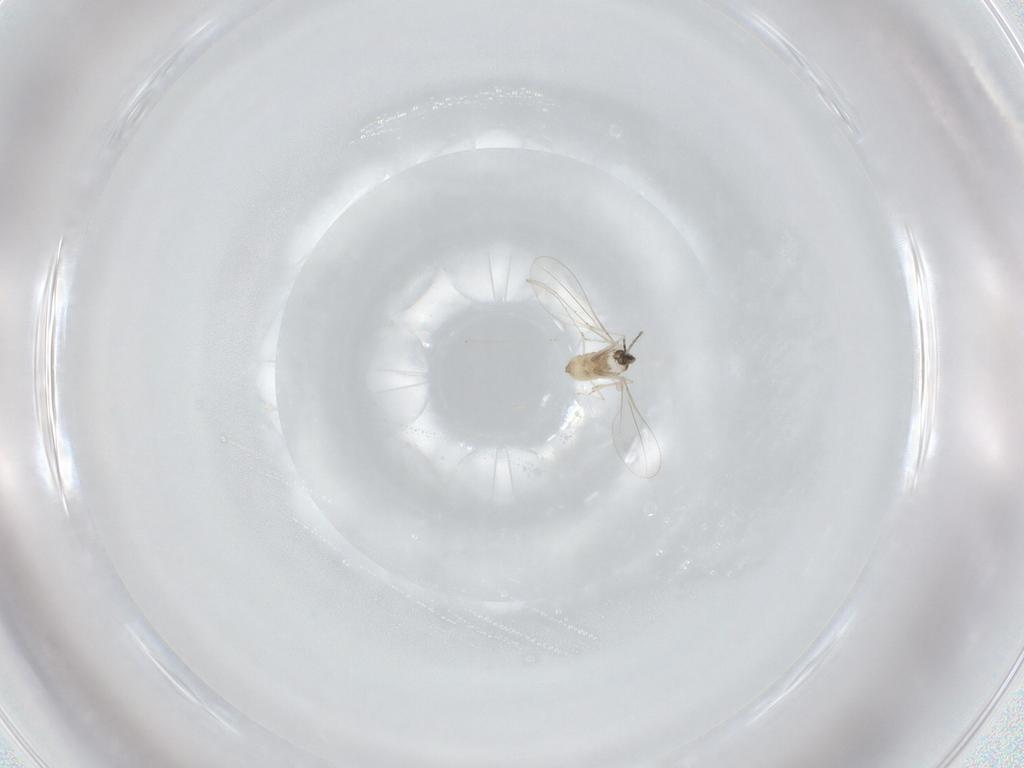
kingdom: Animalia
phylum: Arthropoda
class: Insecta
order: Diptera
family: Cecidomyiidae
